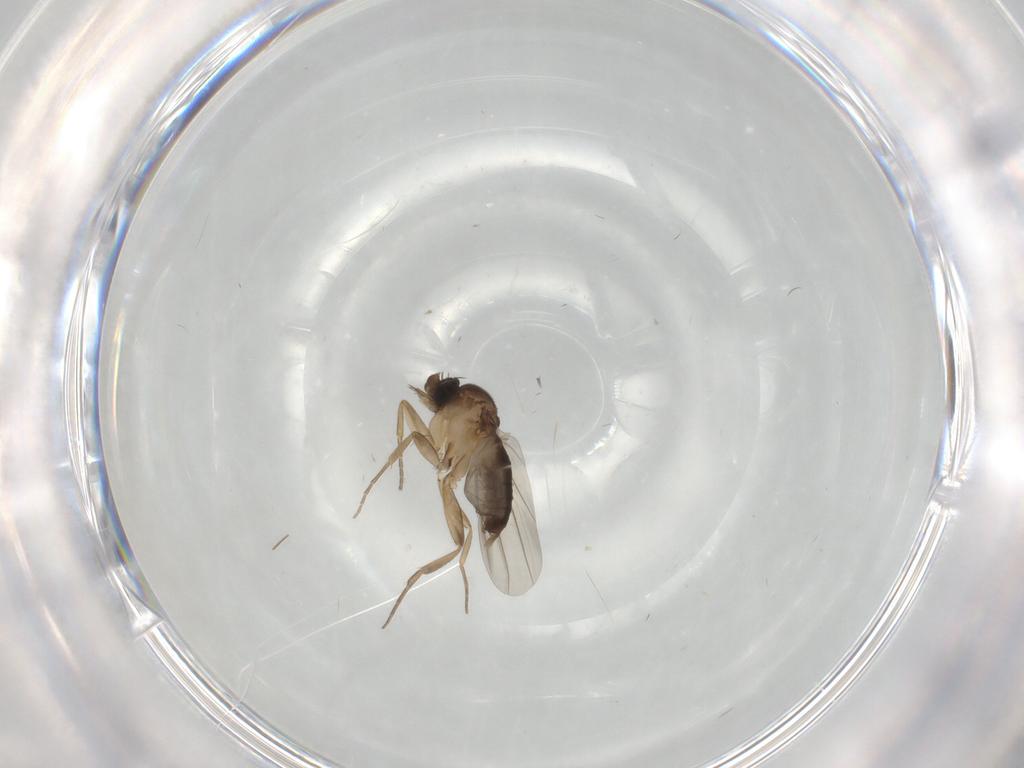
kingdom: Animalia
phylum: Arthropoda
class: Insecta
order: Diptera
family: Phoridae
